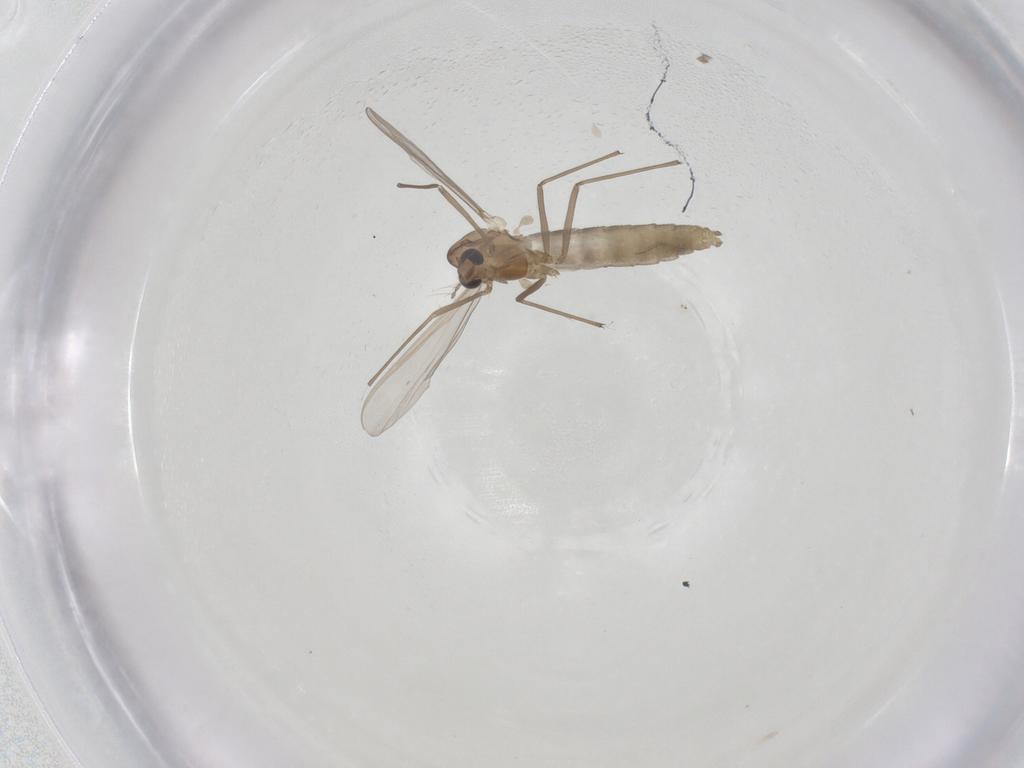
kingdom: Animalia
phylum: Arthropoda
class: Insecta
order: Diptera
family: Chironomidae
